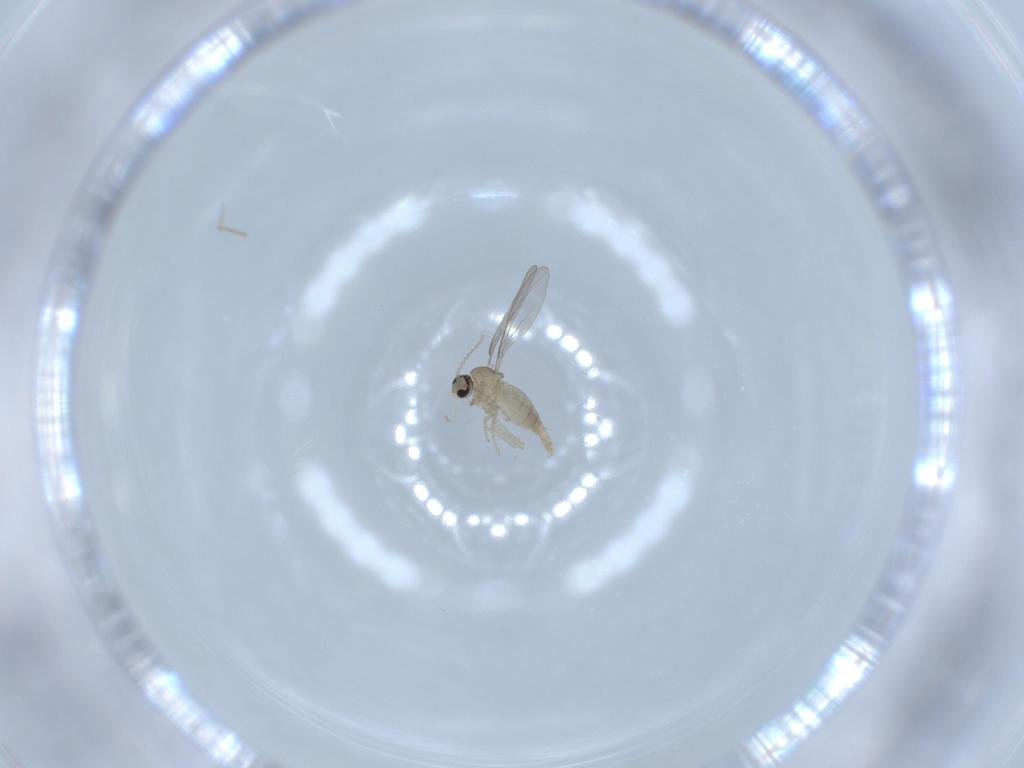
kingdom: Animalia
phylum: Arthropoda
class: Insecta
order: Diptera
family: Cecidomyiidae
